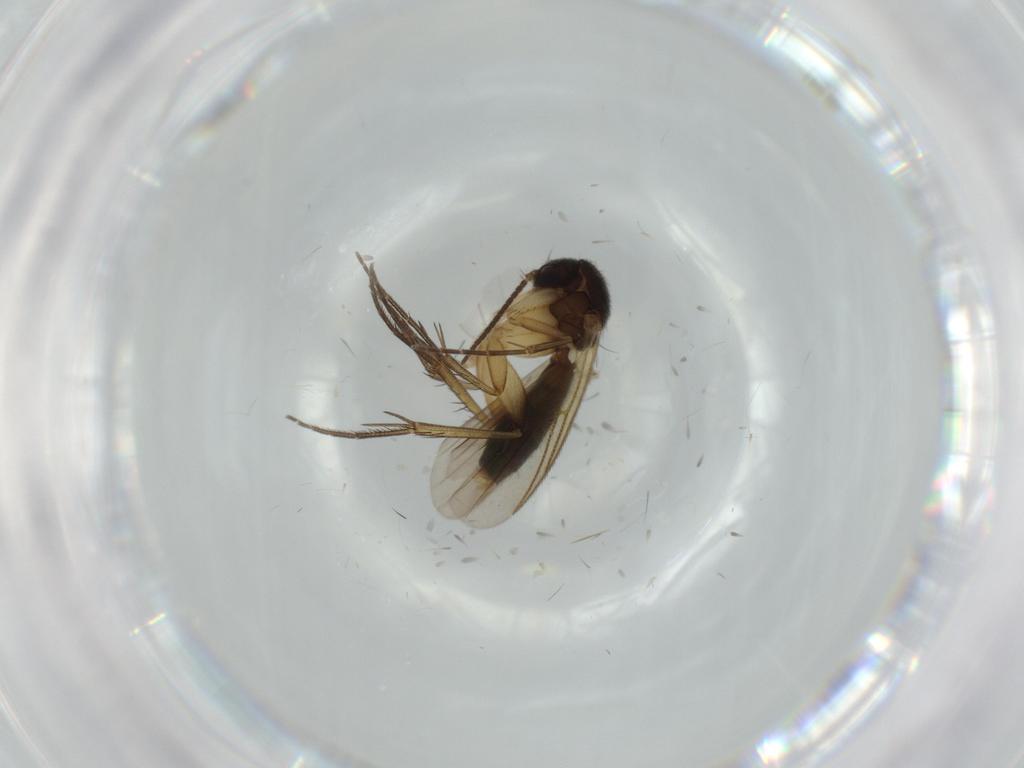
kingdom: Animalia
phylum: Arthropoda
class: Insecta
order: Diptera
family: Mycetophilidae
